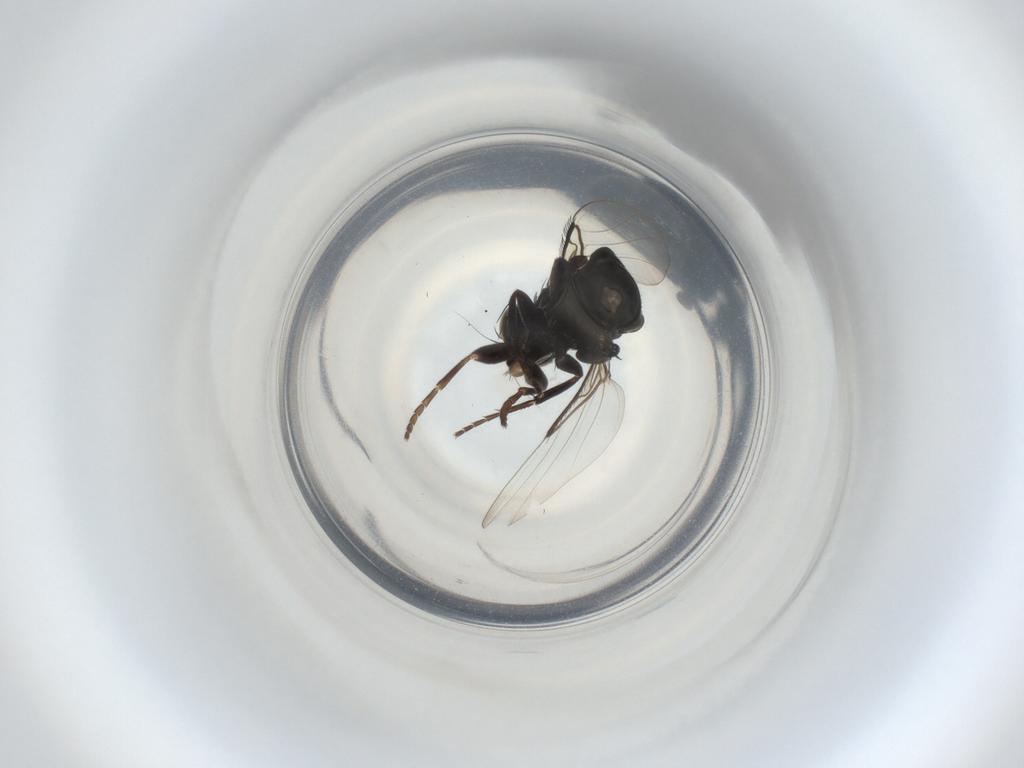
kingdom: Animalia
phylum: Arthropoda
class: Insecta
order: Diptera
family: Phoridae
